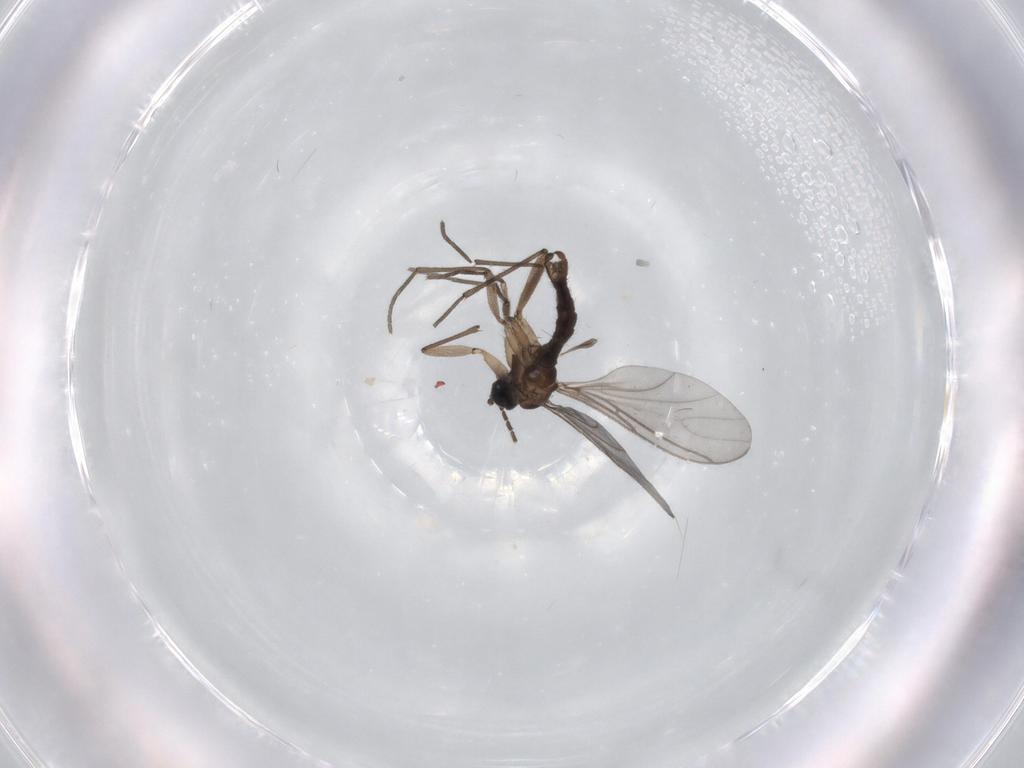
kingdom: Animalia
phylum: Arthropoda
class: Insecta
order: Diptera
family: Sciaridae
